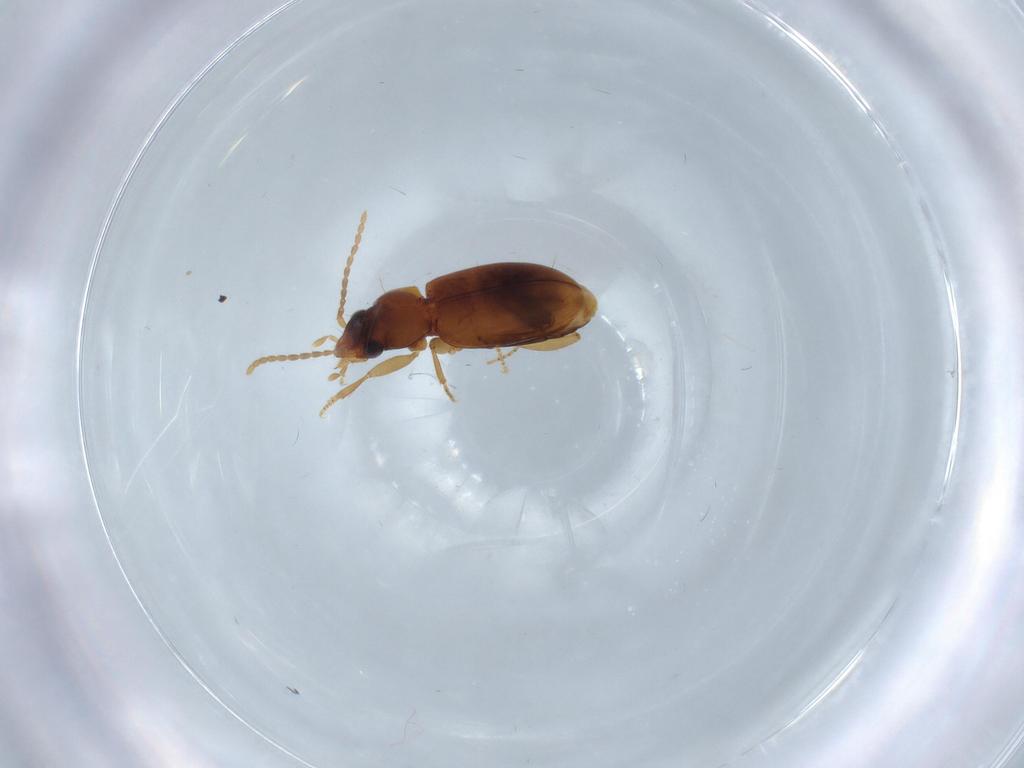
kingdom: Animalia
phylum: Arthropoda
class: Insecta
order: Coleoptera
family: Carabidae
